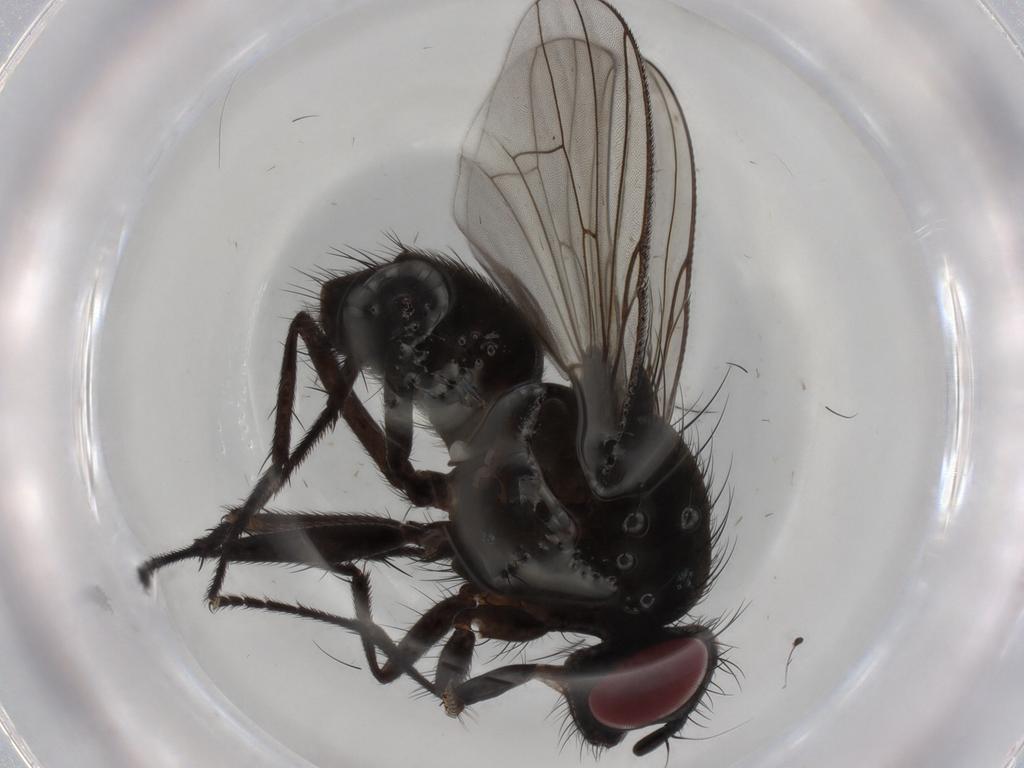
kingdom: Animalia
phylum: Arthropoda
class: Insecta
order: Diptera
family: Muscidae
